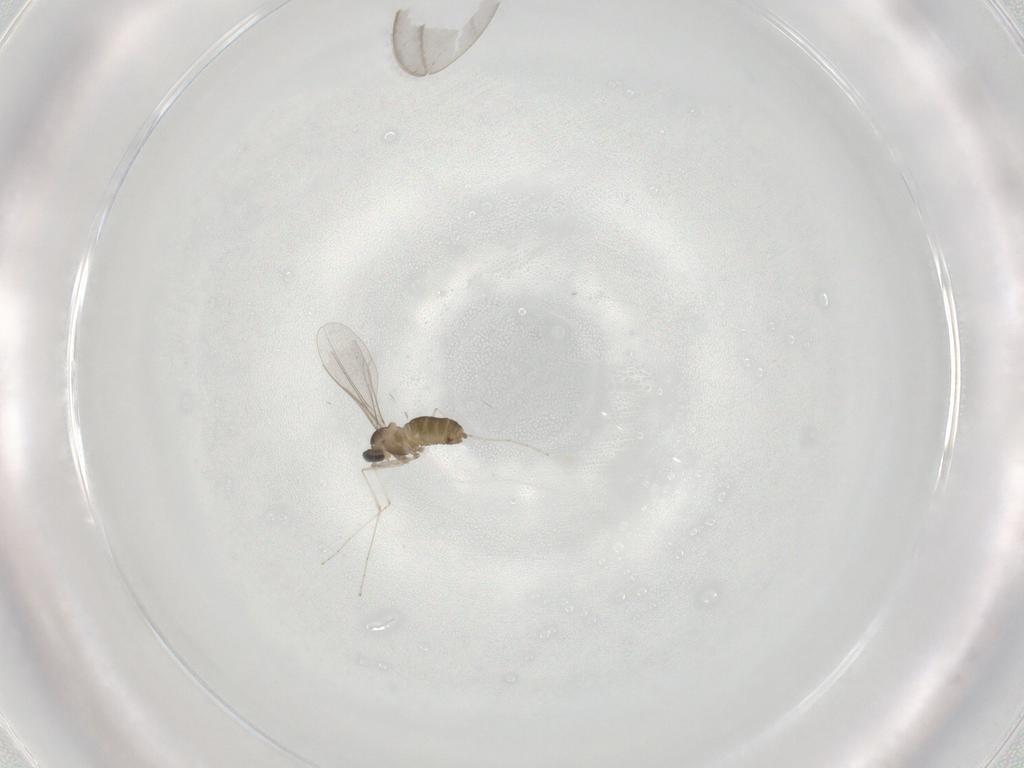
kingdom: Animalia
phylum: Arthropoda
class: Insecta
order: Diptera
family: Cecidomyiidae
